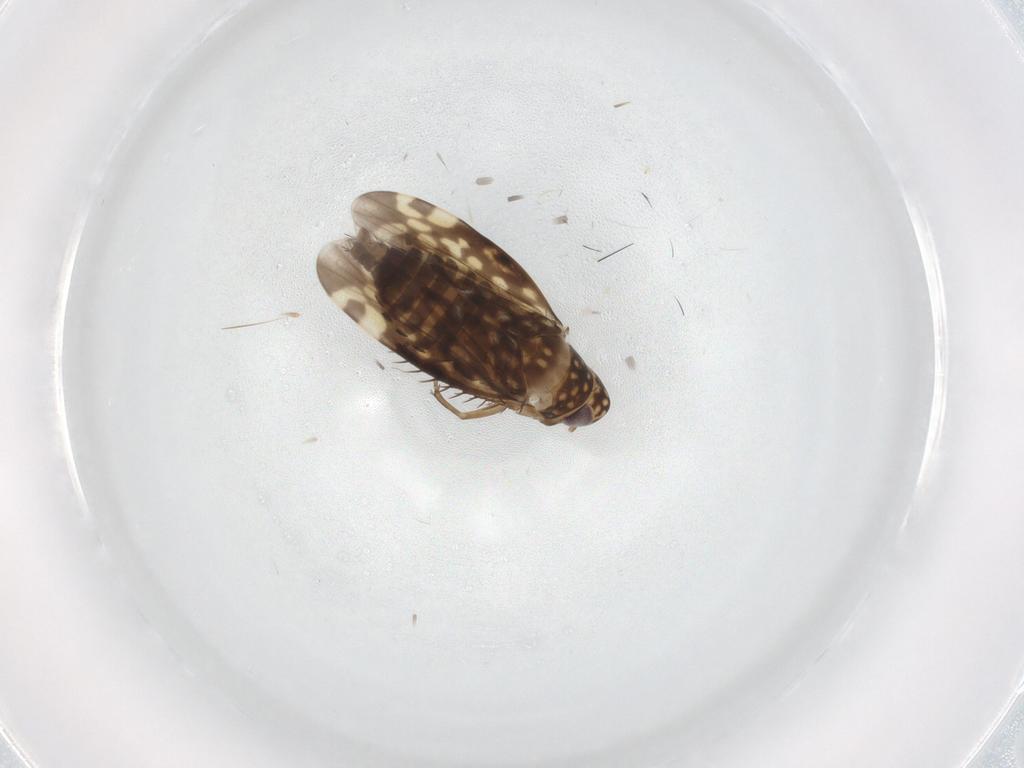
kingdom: Animalia
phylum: Arthropoda
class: Insecta
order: Hemiptera
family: Cicadellidae
